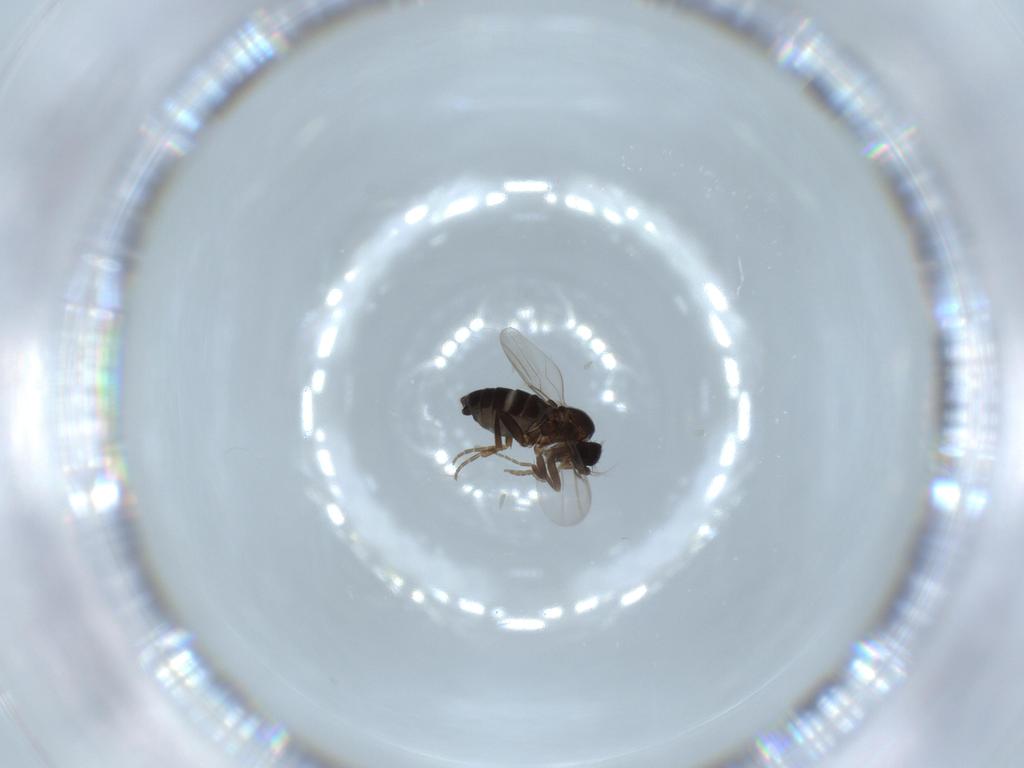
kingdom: Animalia
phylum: Arthropoda
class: Insecta
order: Diptera
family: Phoridae
